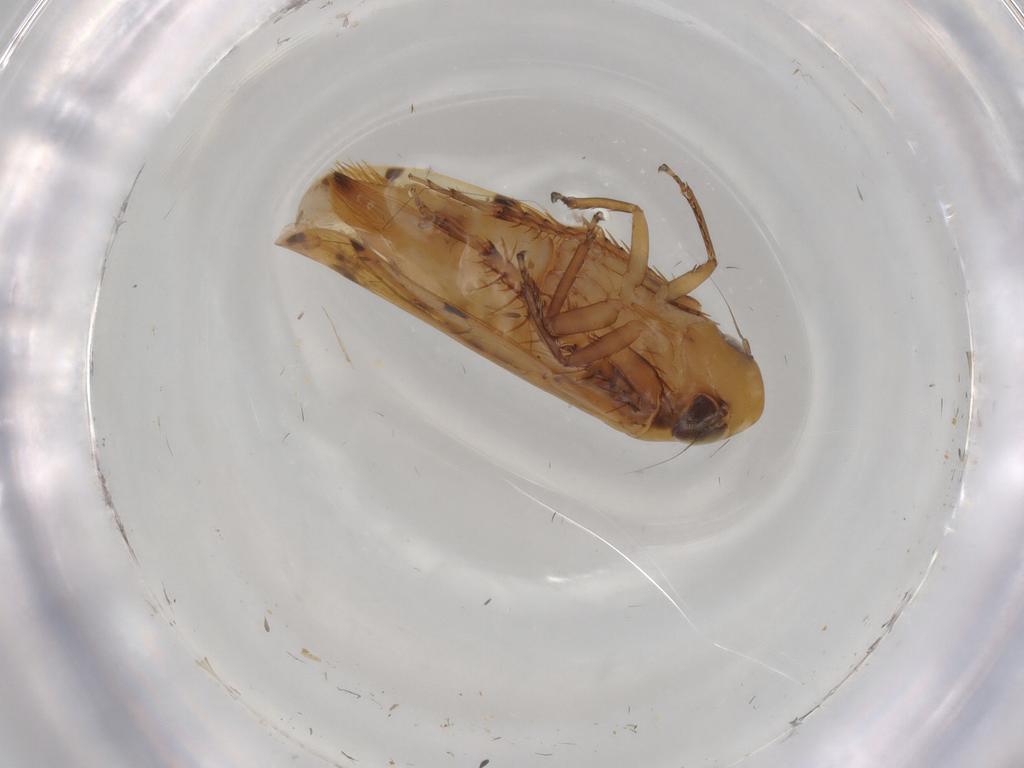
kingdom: Animalia
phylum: Arthropoda
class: Insecta
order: Hemiptera
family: Cicadellidae
